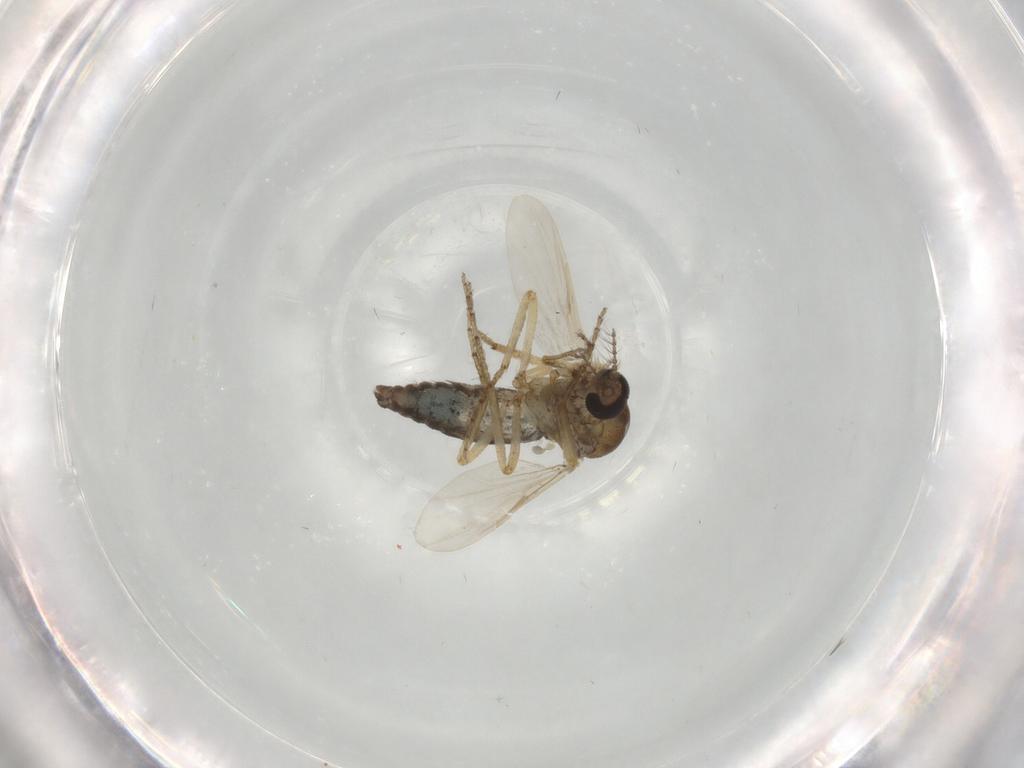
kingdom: Animalia
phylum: Arthropoda
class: Insecta
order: Diptera
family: Ceratopogonidae
